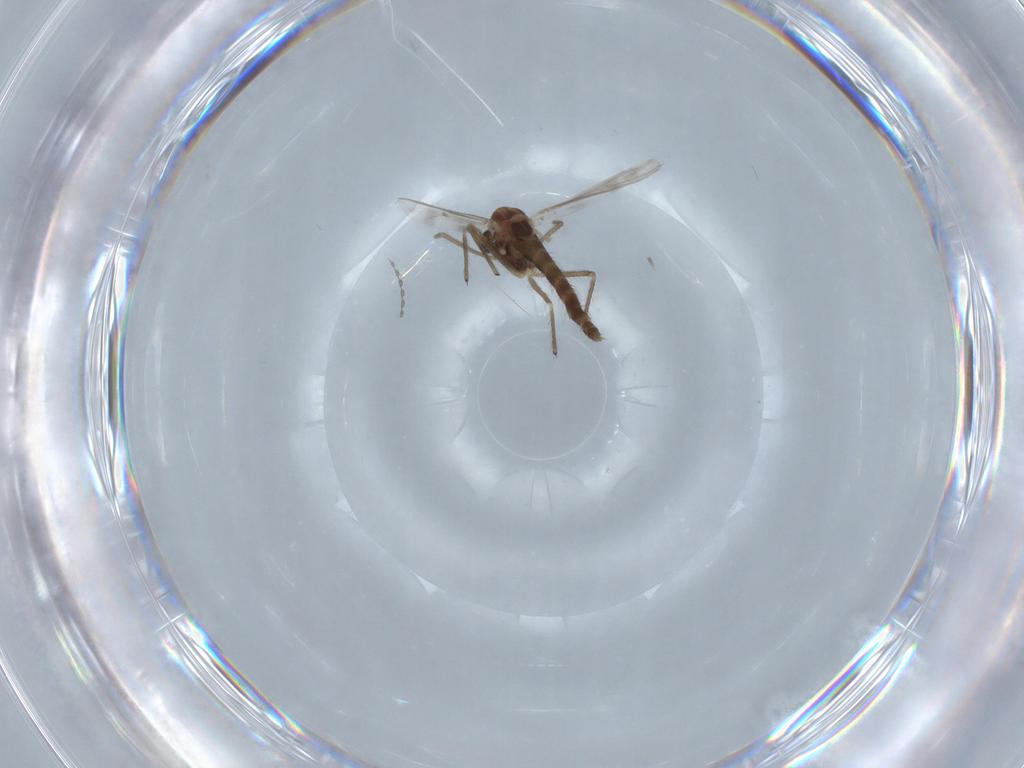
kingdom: Animalia
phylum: Arthropoda
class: Insecta
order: Diptera
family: Chironomidae
